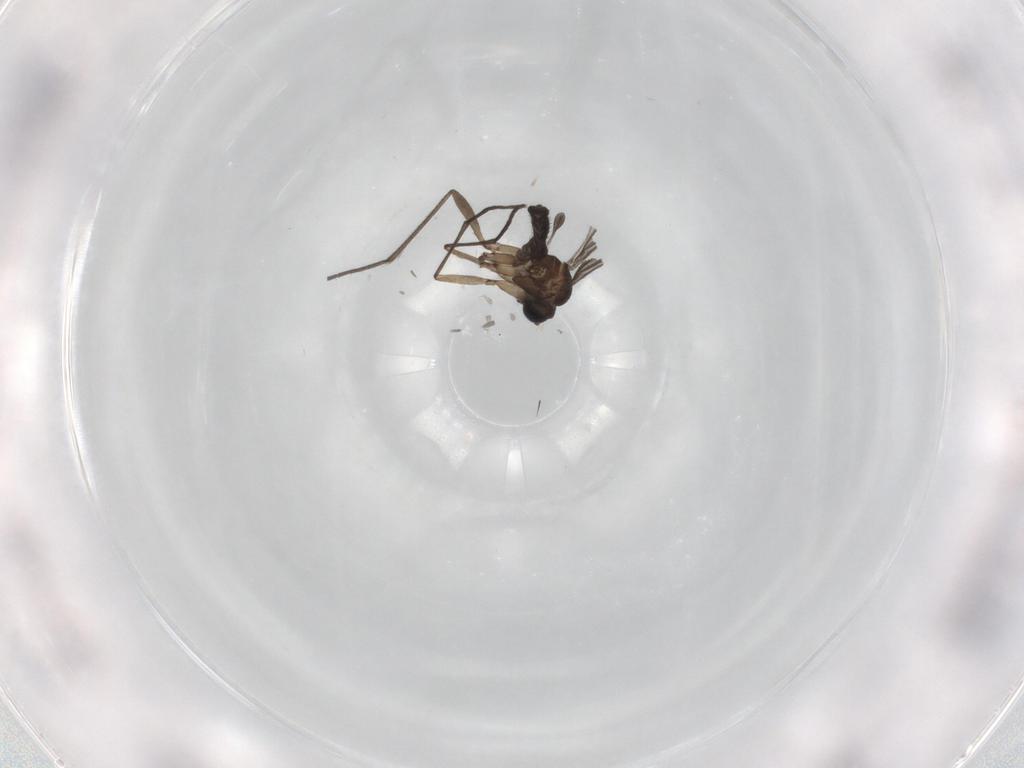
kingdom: Animalia
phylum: Arthropoda
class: Insecta
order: Diptera
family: Sciaridae
